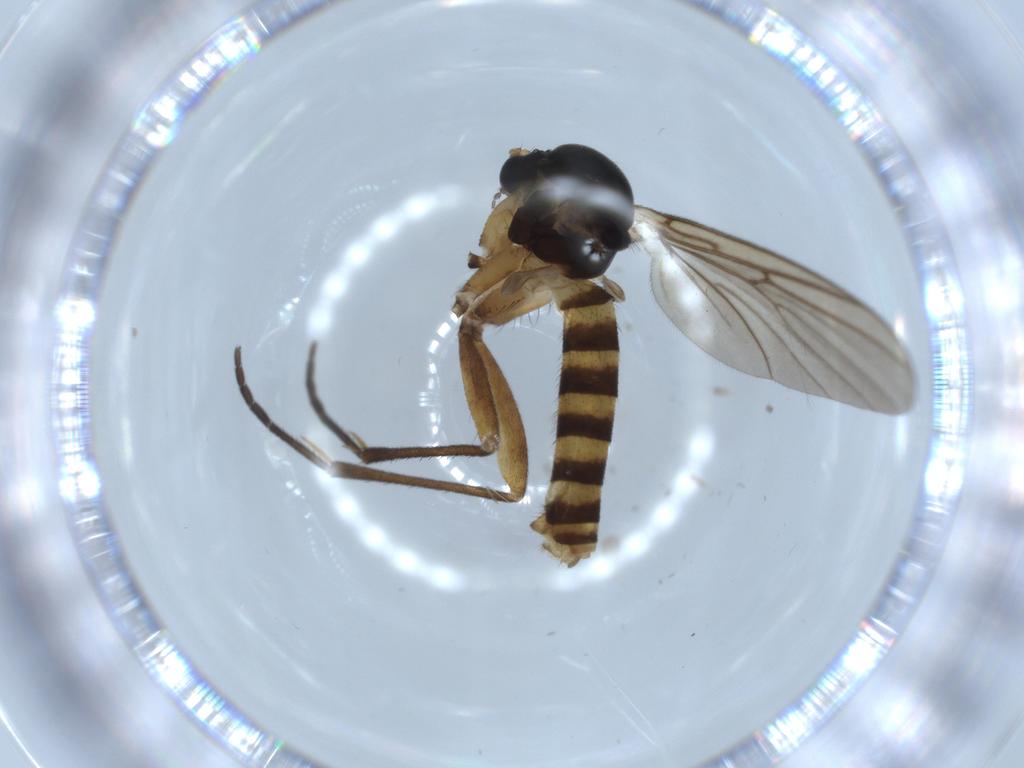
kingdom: Animalia
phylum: Arthropoda
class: Insecta
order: Diptera
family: Mycetophilidae
